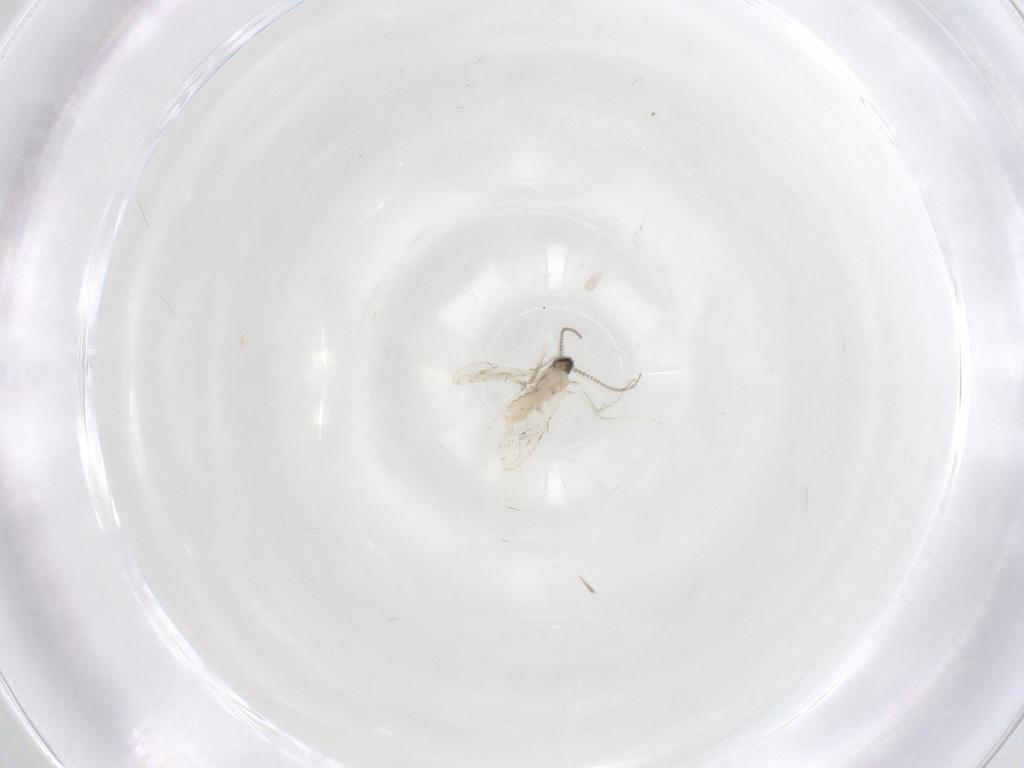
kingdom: Animalia
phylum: Arthropoda
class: Insecta
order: Diptera
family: Cecidomyiidae
